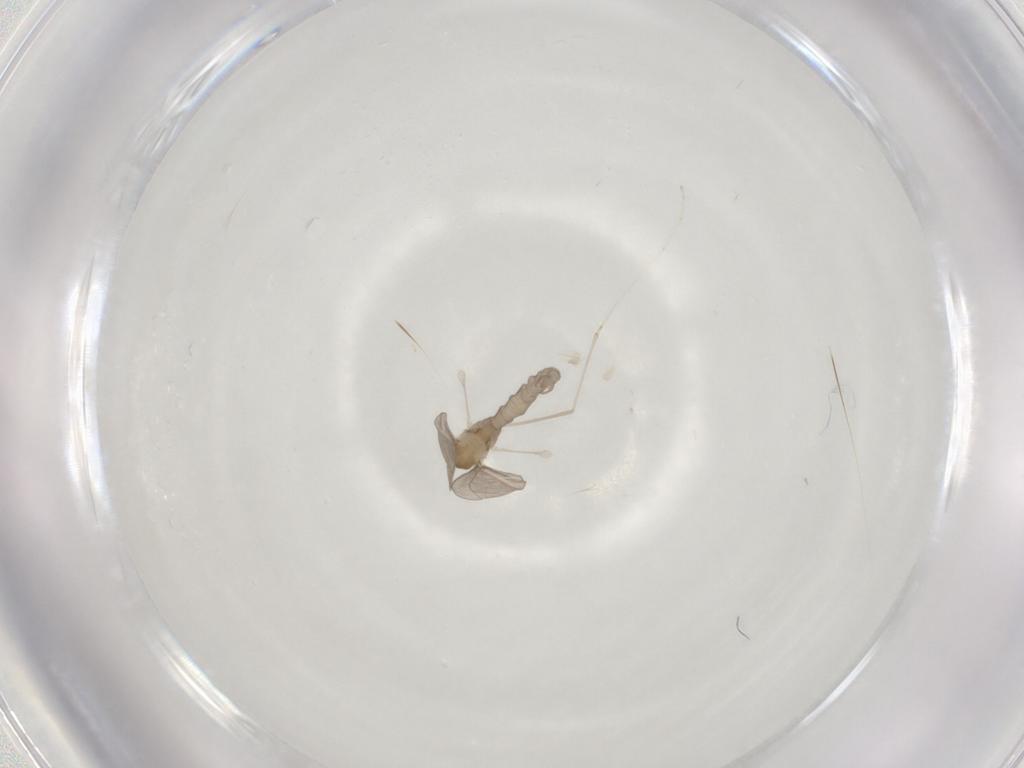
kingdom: Animalia
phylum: Arthropoda
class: Insecta
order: Diptera
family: Cecidomyiidae
